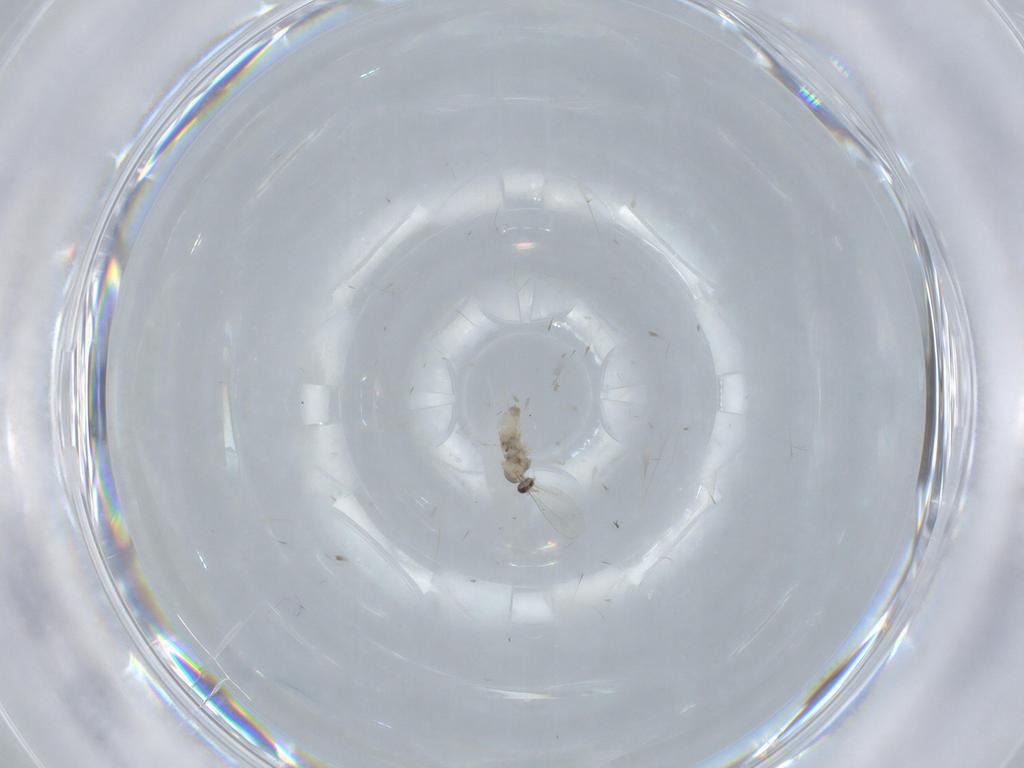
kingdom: Animalia
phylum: Arthropoda
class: Insecta
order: Diptera
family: Cecidomyiidae
